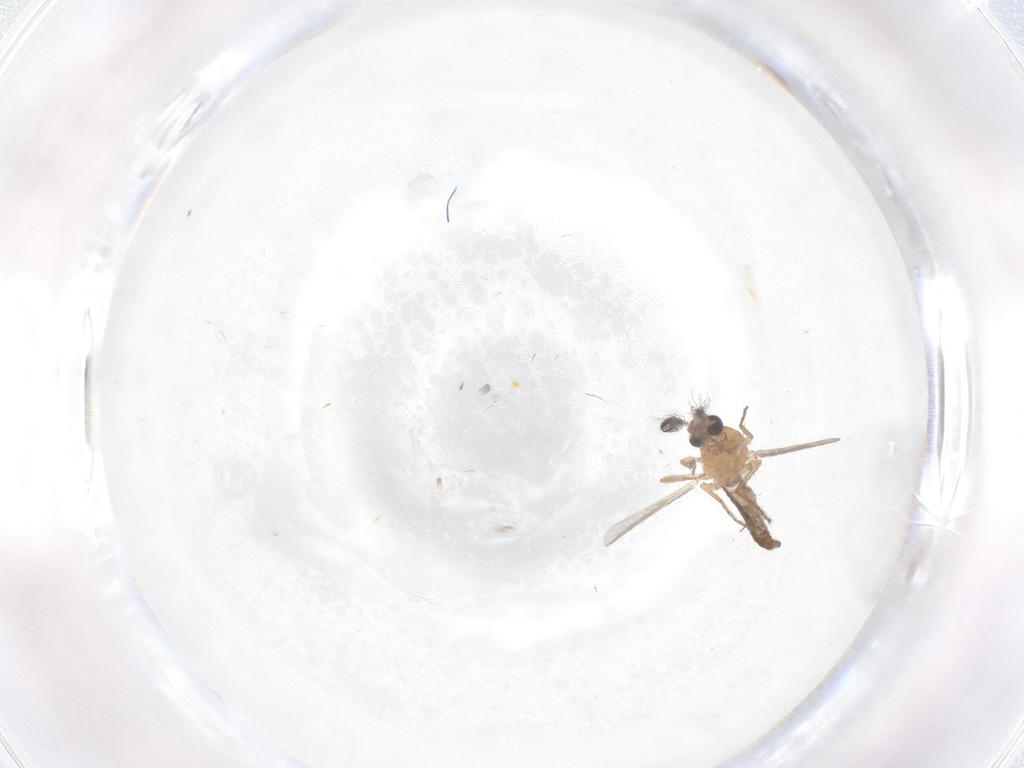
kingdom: Animalia
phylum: Arthropoda
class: Insecta
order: Diptera
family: Ceratopogonidae
